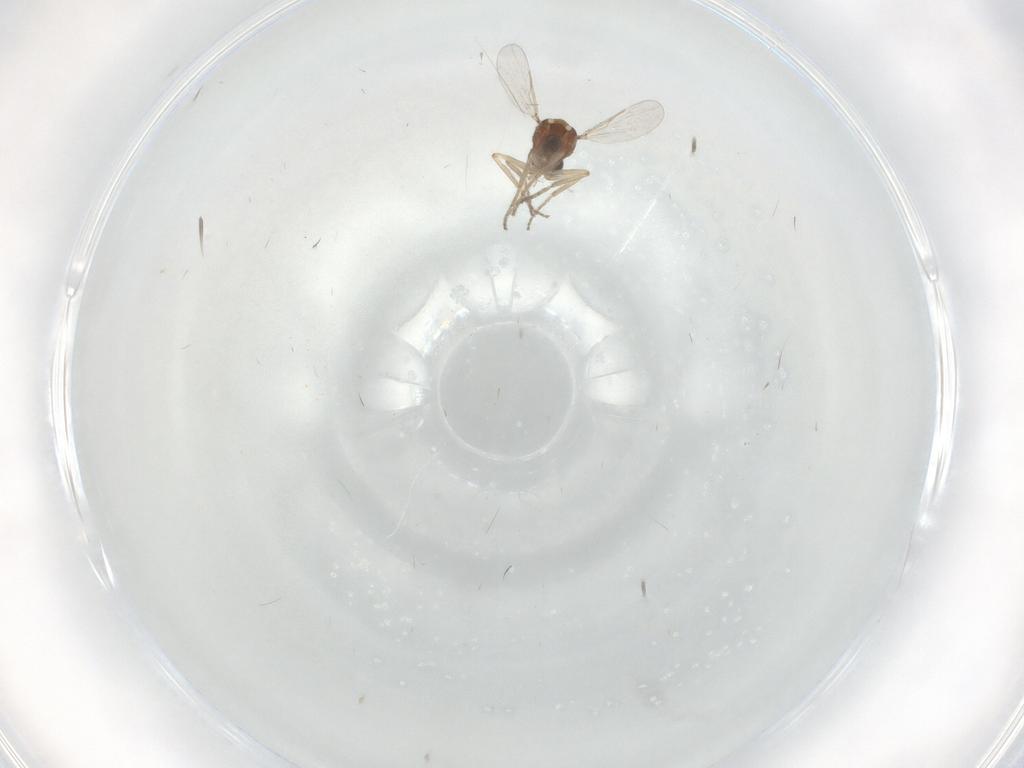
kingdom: Animalia
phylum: Arthropoda
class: Insecta
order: Diptera
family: Ceratopogonidae
